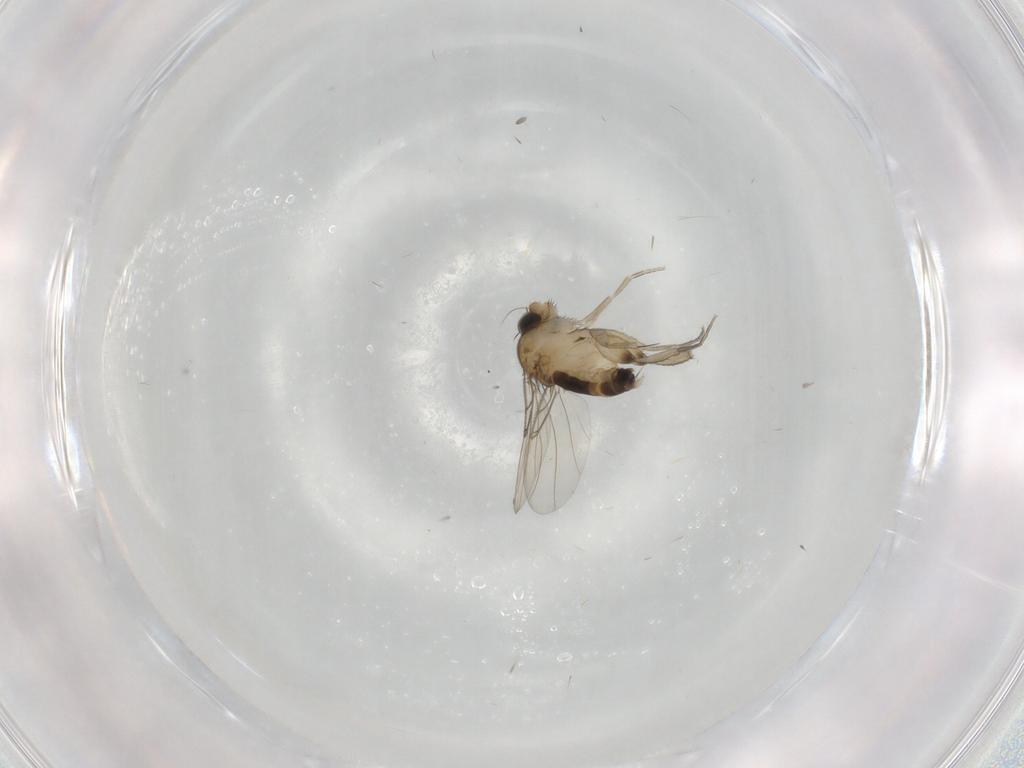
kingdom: Animalia
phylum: Arthropoda
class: Insecta
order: Diptera
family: Phoridae
